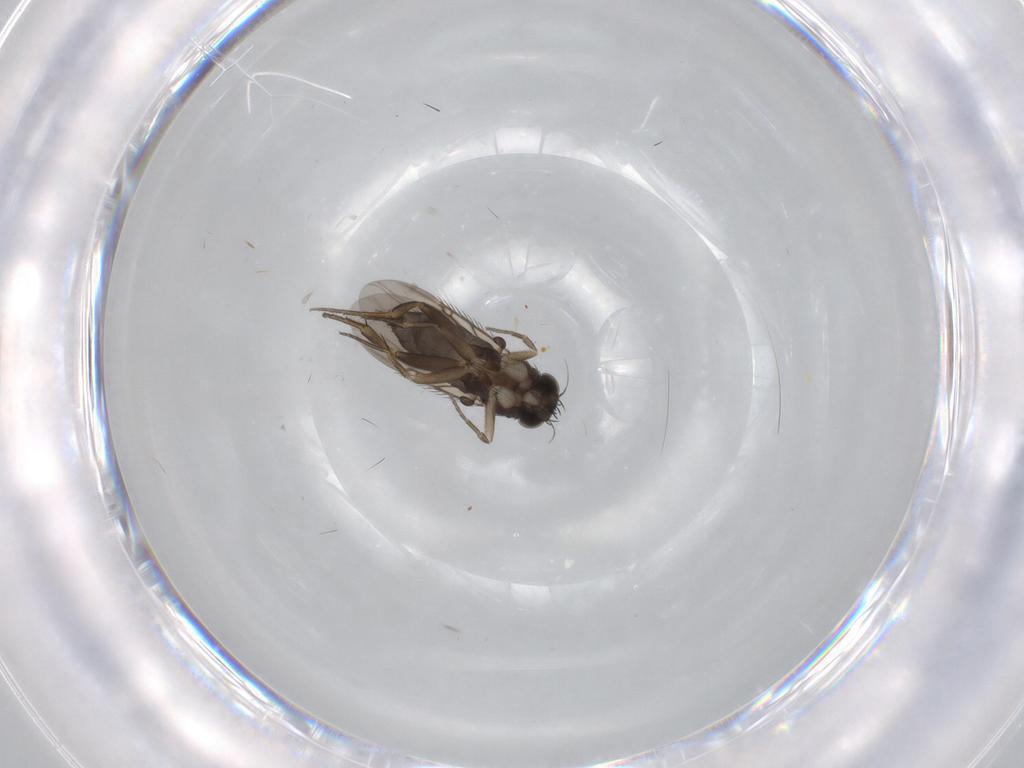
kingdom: Animalia
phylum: Arthropoda
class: Insecta
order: Diptera
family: Phoridae
